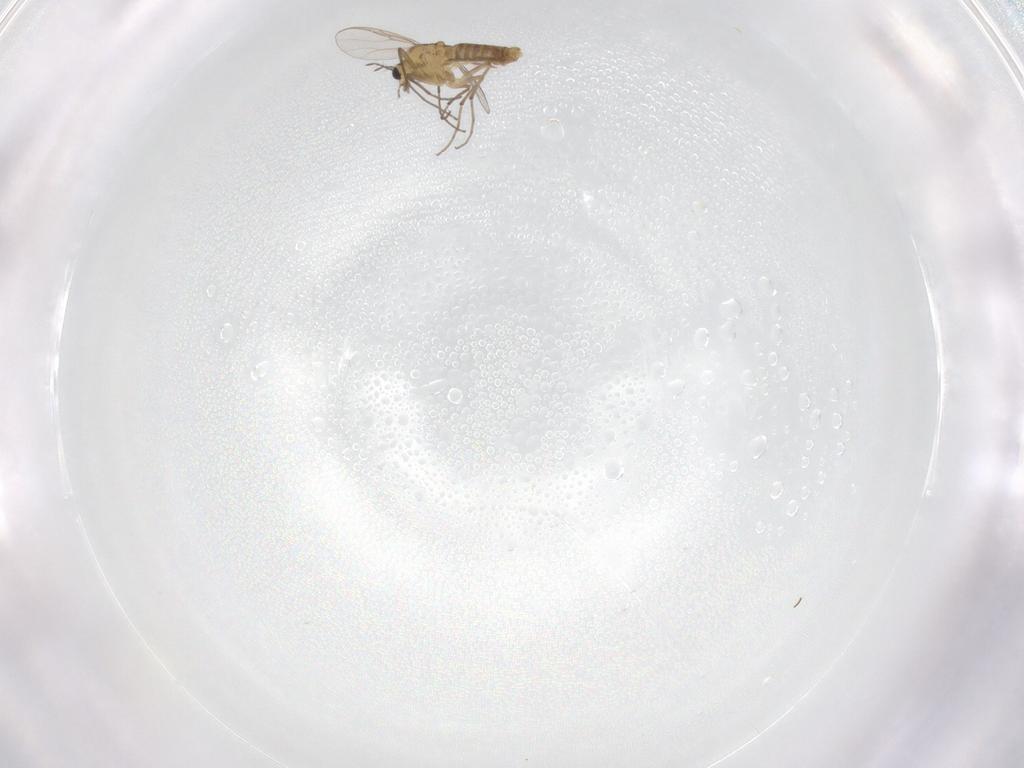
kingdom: Animalia
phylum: Arthropoda
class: Insecta
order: Diptera
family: Chironomidae
